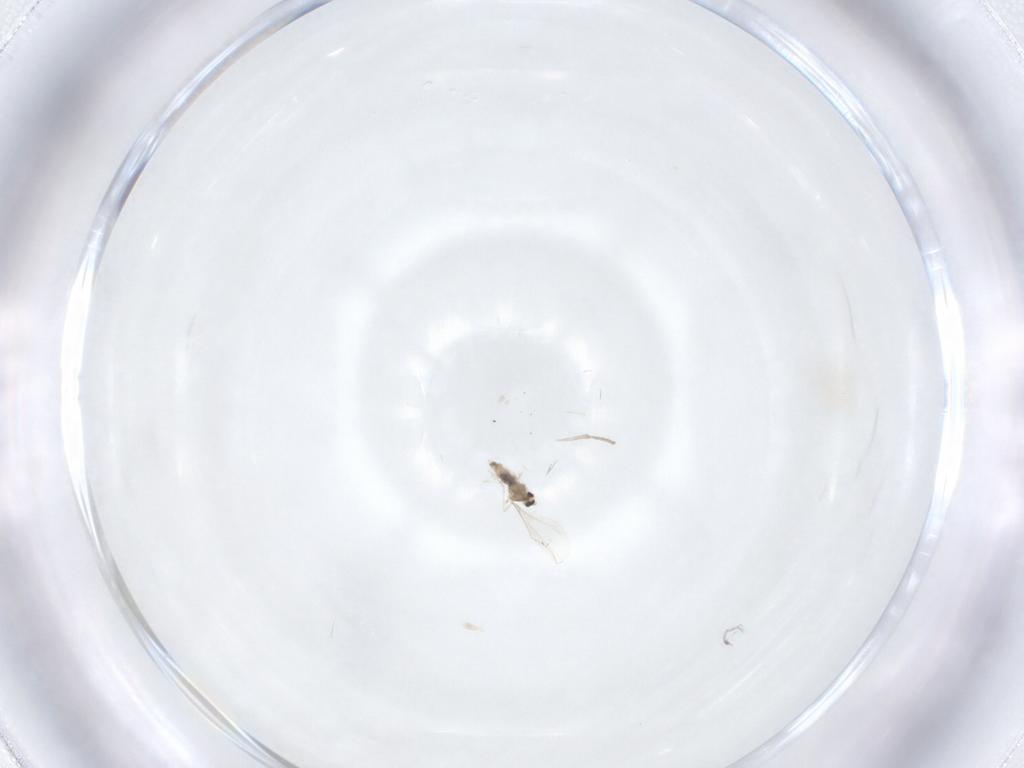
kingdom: Animalia
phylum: Arthropoda
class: Insecta
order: Diptera
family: Cecidomyiidae
